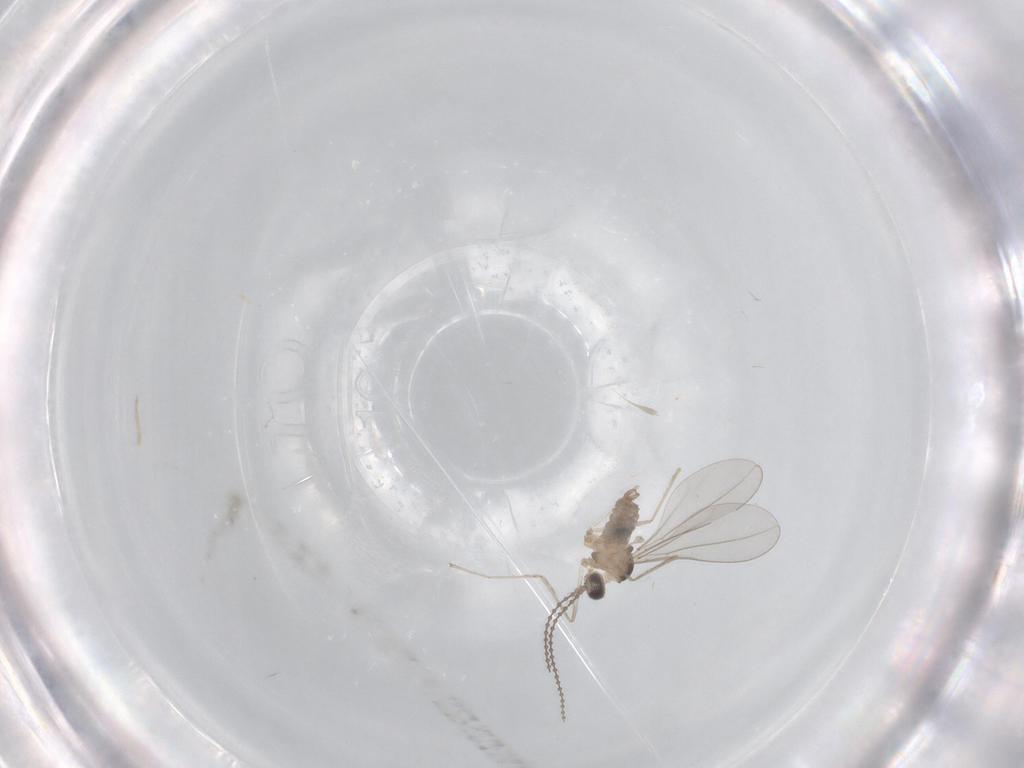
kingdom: Animalia
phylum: Arthropoda
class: Insecta
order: Diptera
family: Cecidomyiidae
